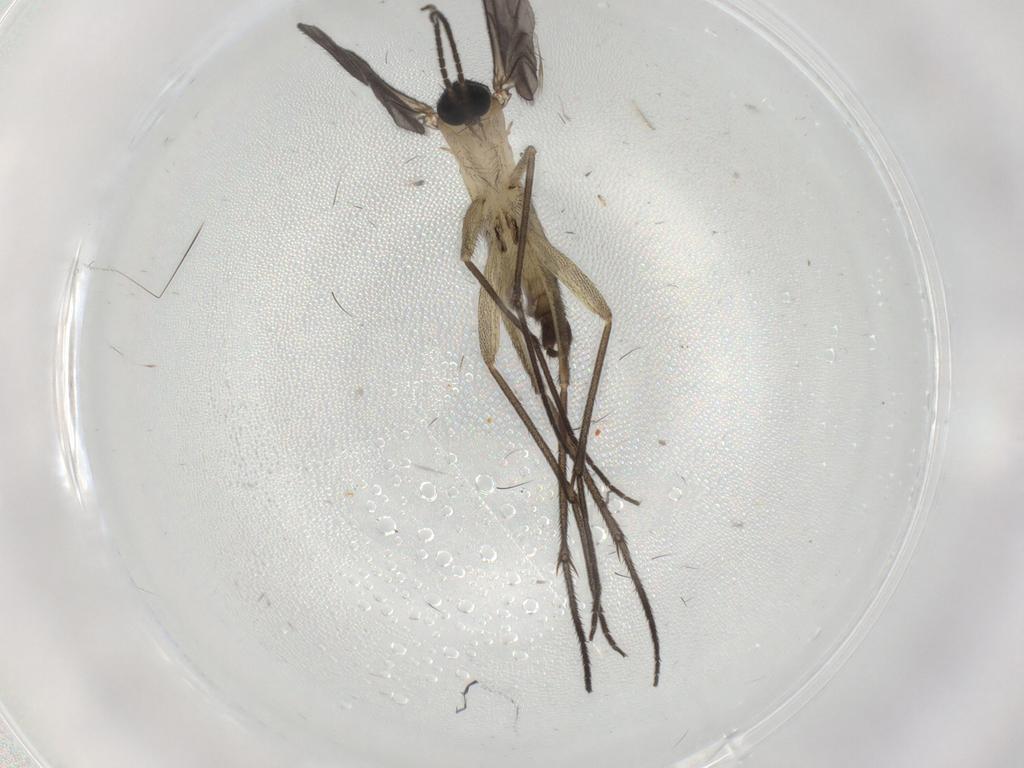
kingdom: Animalia
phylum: Arthropoda
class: Insecta
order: Diptera
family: Sciaridae
